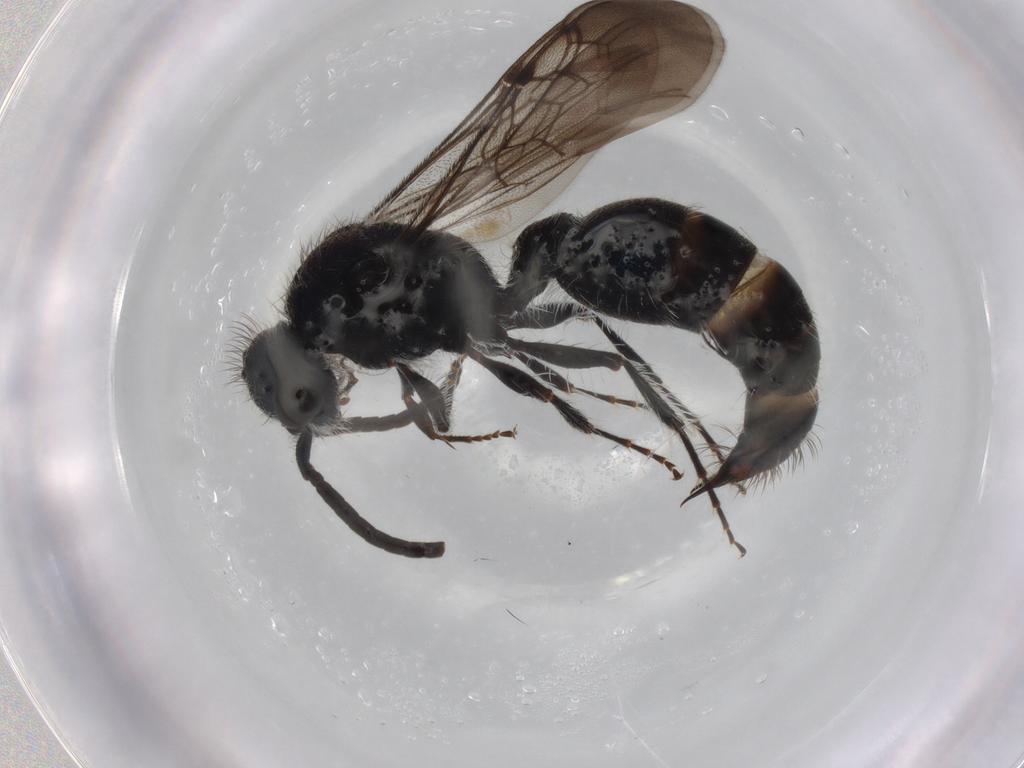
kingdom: Animalia
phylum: Arthropoda
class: Insecta
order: Hymenoptera
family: Mutillidae
